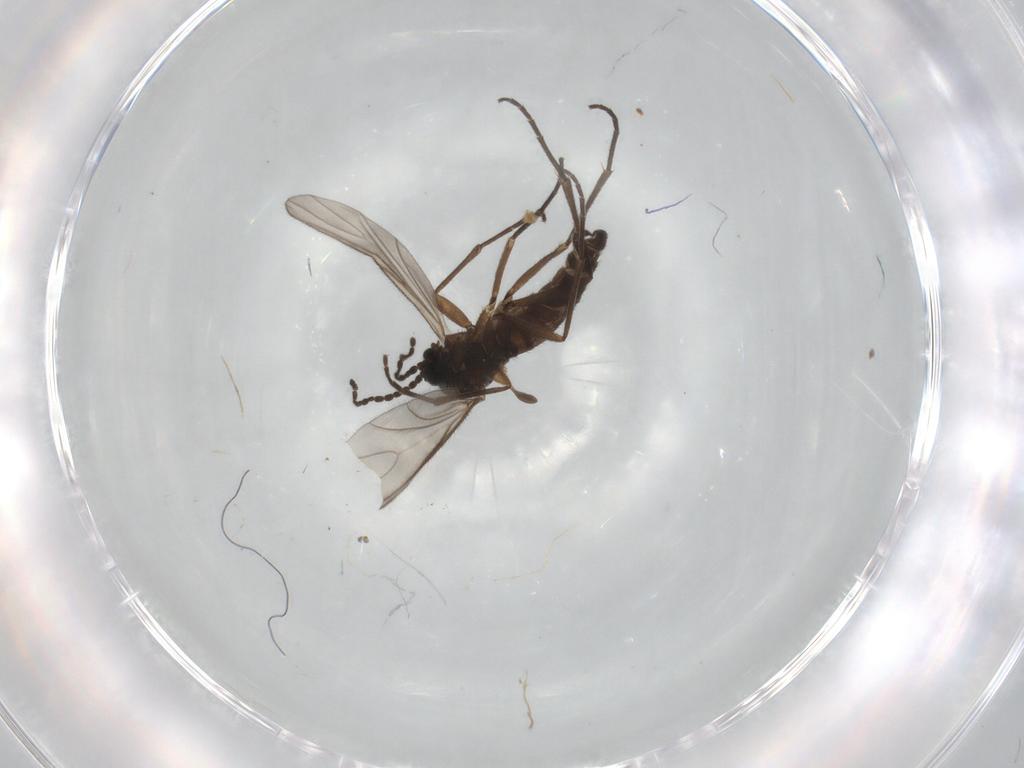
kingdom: Animalia
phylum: Arthropoda
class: Insecta
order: Diptera
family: Sciaridae
